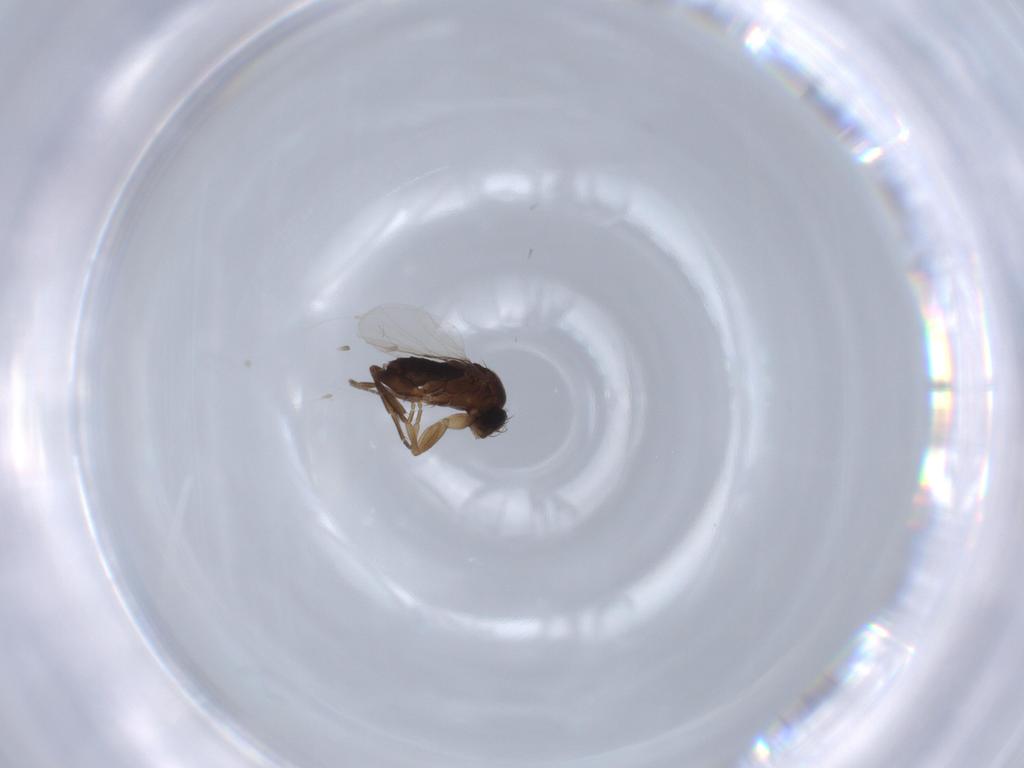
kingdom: Animalia
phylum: Arthropoda
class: Insecta
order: Diptera
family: Phoridae
